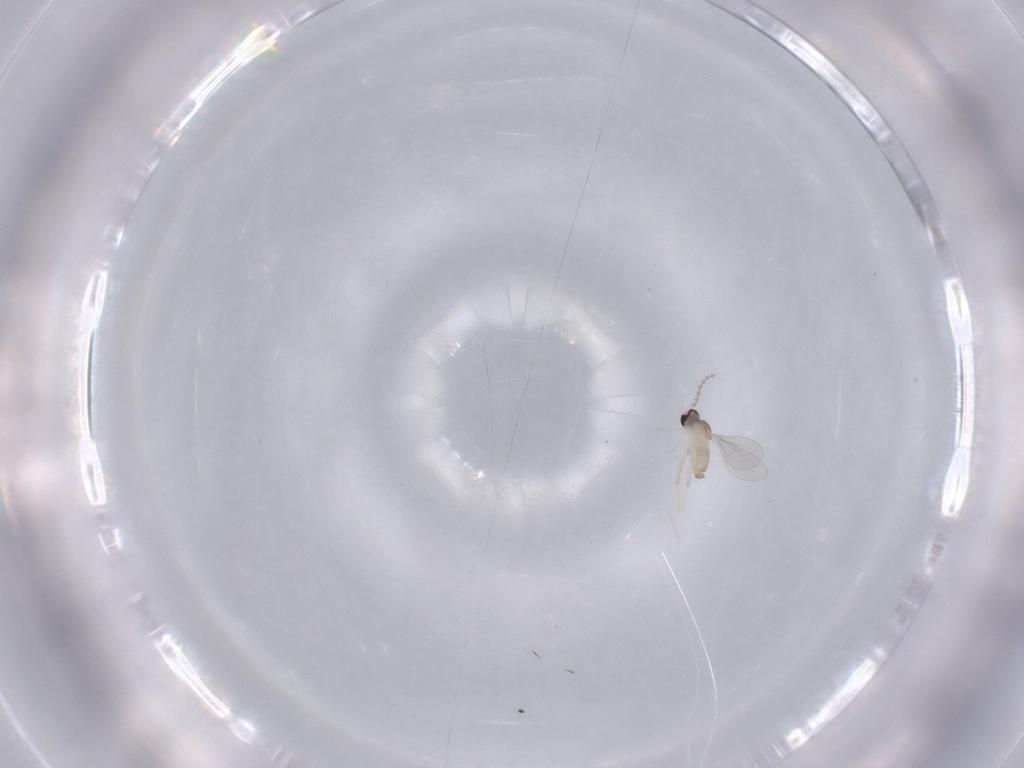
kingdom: Animalia
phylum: Arthropoda
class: Insecta
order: Diptera
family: Cecidomyiidae
